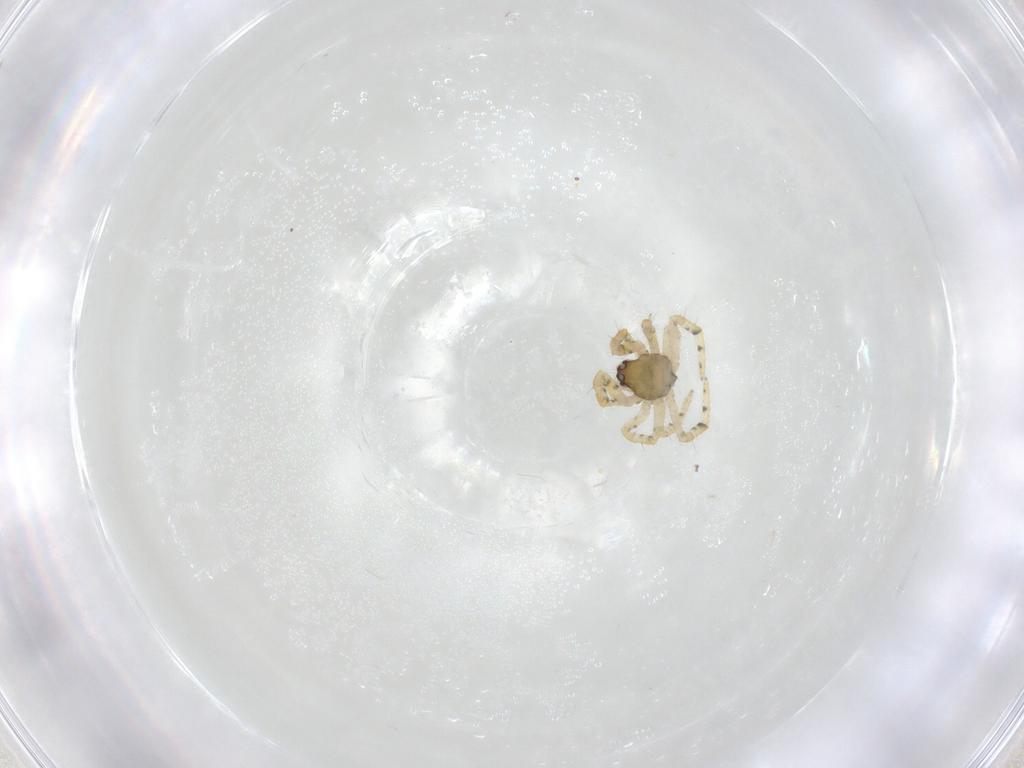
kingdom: Animalia
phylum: Arthropoda
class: Arachnida
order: Araneae
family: Theridiidae
